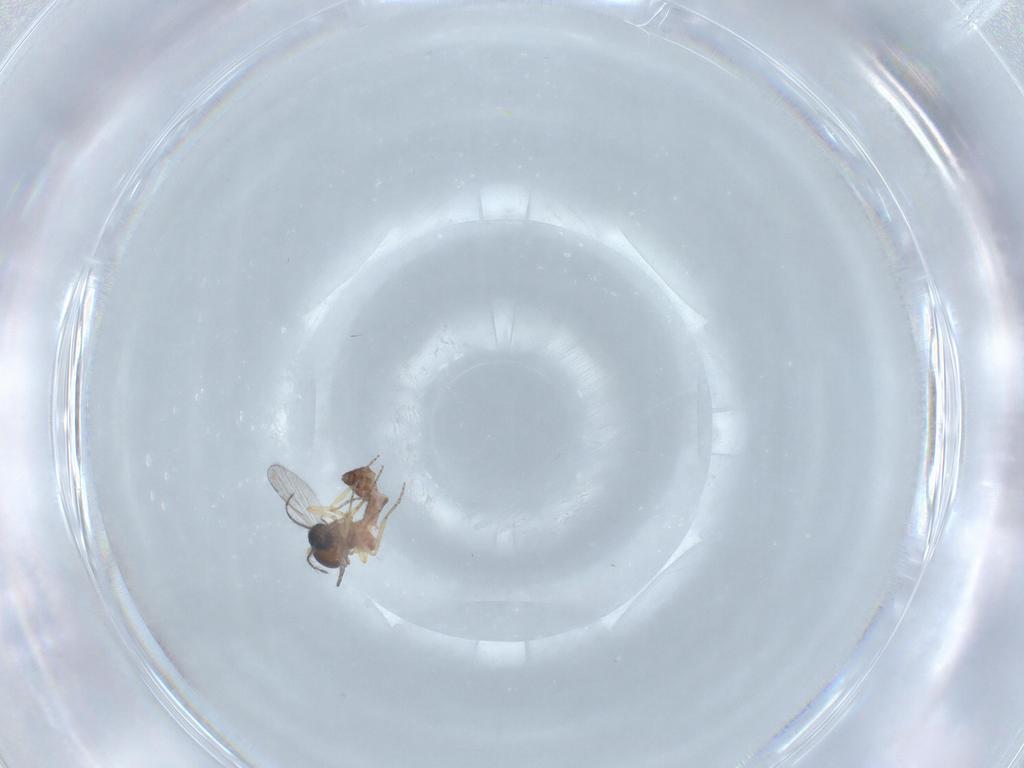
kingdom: Animalia
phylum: Arthropoda
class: Insecta
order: Diptera
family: Ceratopogonidae
